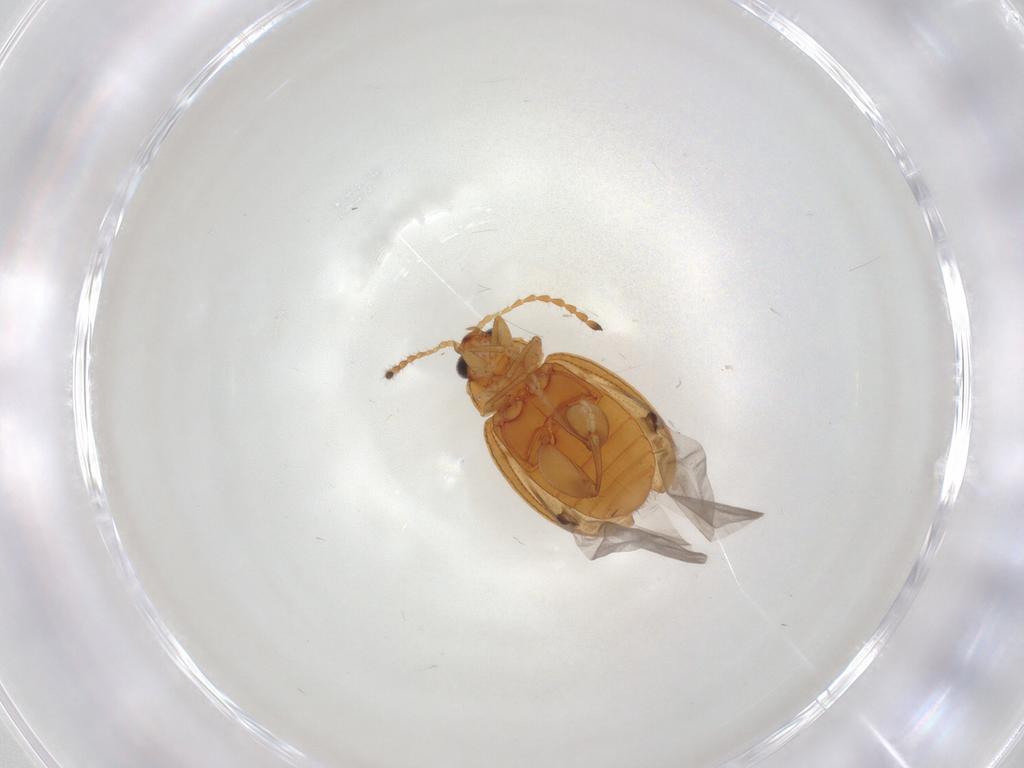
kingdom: Animalia
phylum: Arthropoda
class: Insecta
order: Coleoptera
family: Chrysomelidae
